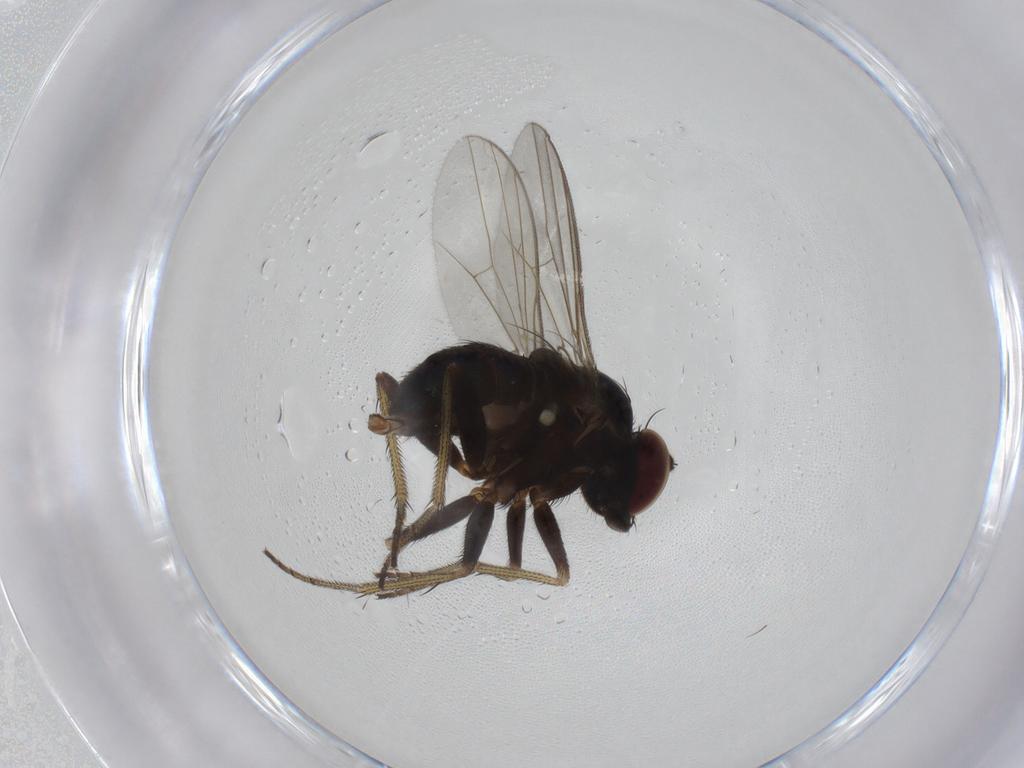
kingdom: Animalia
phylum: Arthropoda
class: Insecta
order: Diptera
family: Dolichopodidae
